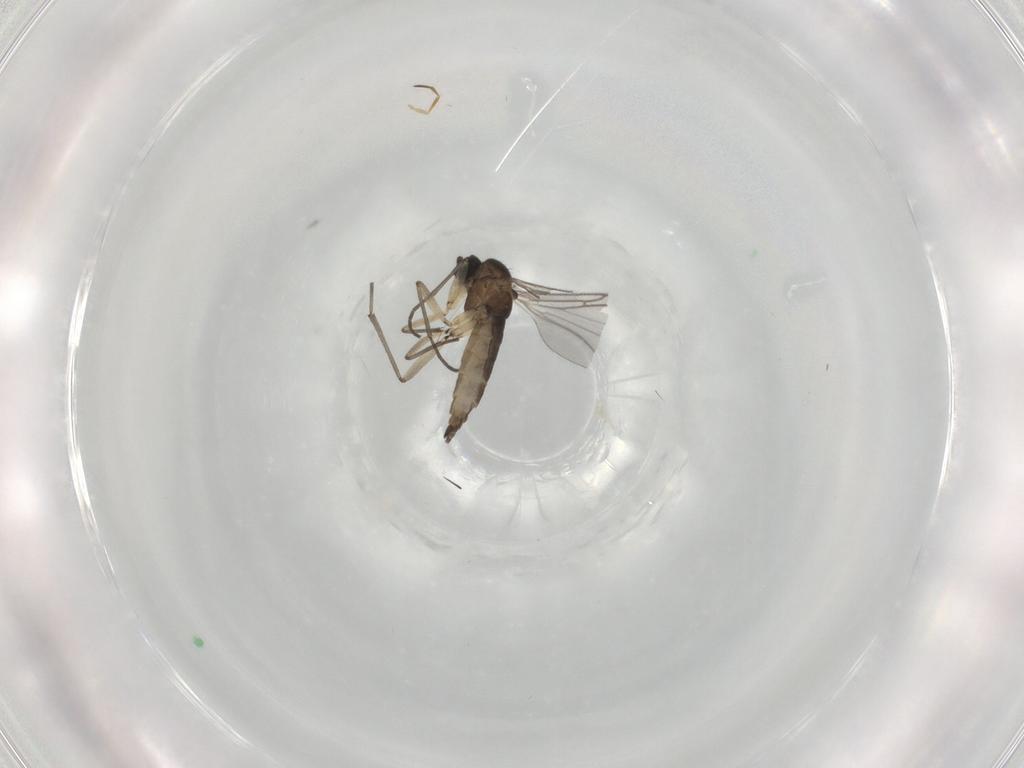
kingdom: Animalia
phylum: Arthropoda
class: Insecta
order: Diptera
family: Sciaridae
